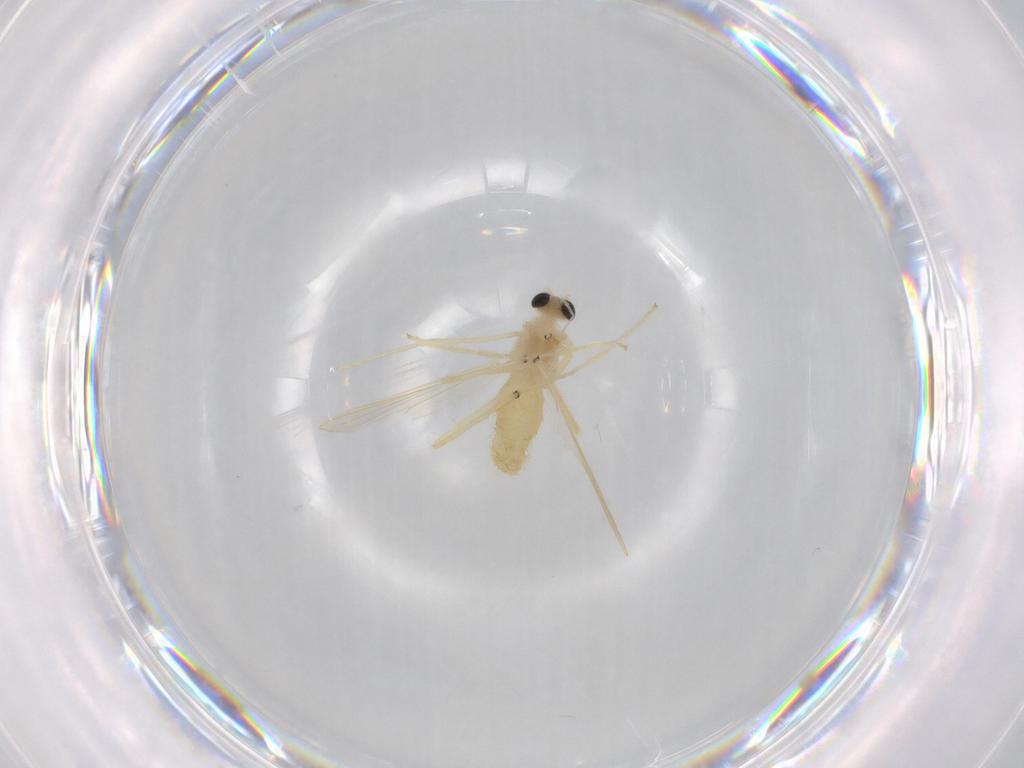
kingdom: Animalia
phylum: Arthropoda
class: Insecta
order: Diptera
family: Chironomidae
